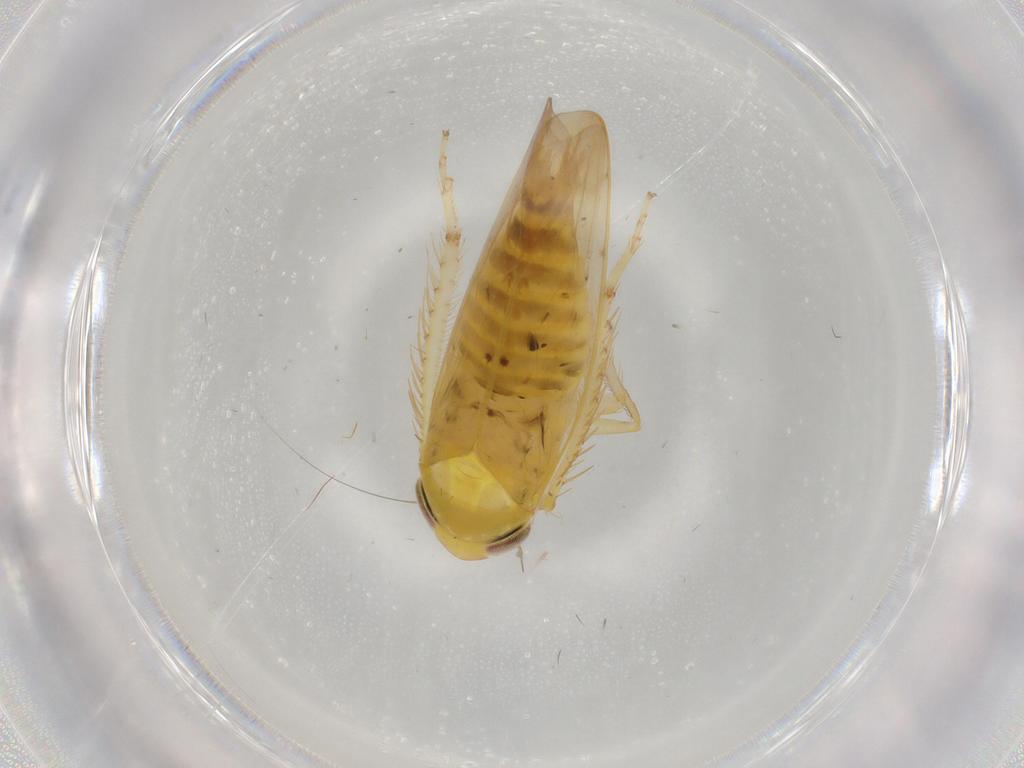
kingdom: Animalia
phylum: Arthropoda
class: Insecta
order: Hemiptera
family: Cicadellidae
